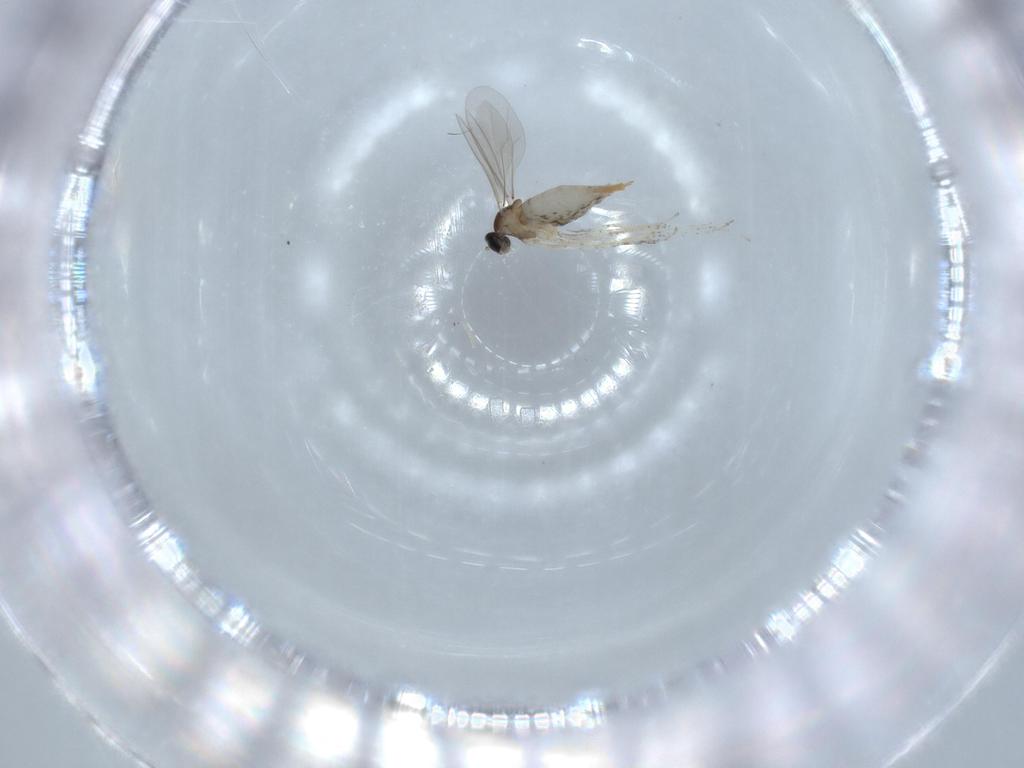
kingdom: Animalia
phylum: Arthropoda
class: Insecta
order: Diptera
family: Cecidomyiidae
